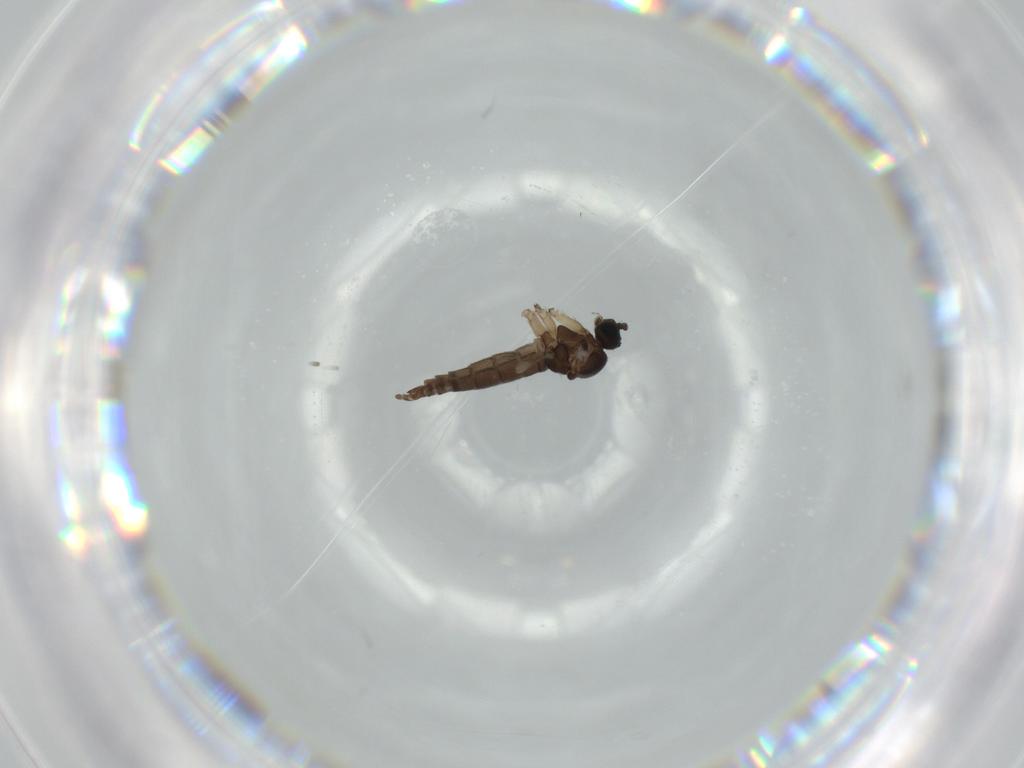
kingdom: Animalia
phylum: Arthropoda
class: Insecta
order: Diptera
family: Sciaridae
